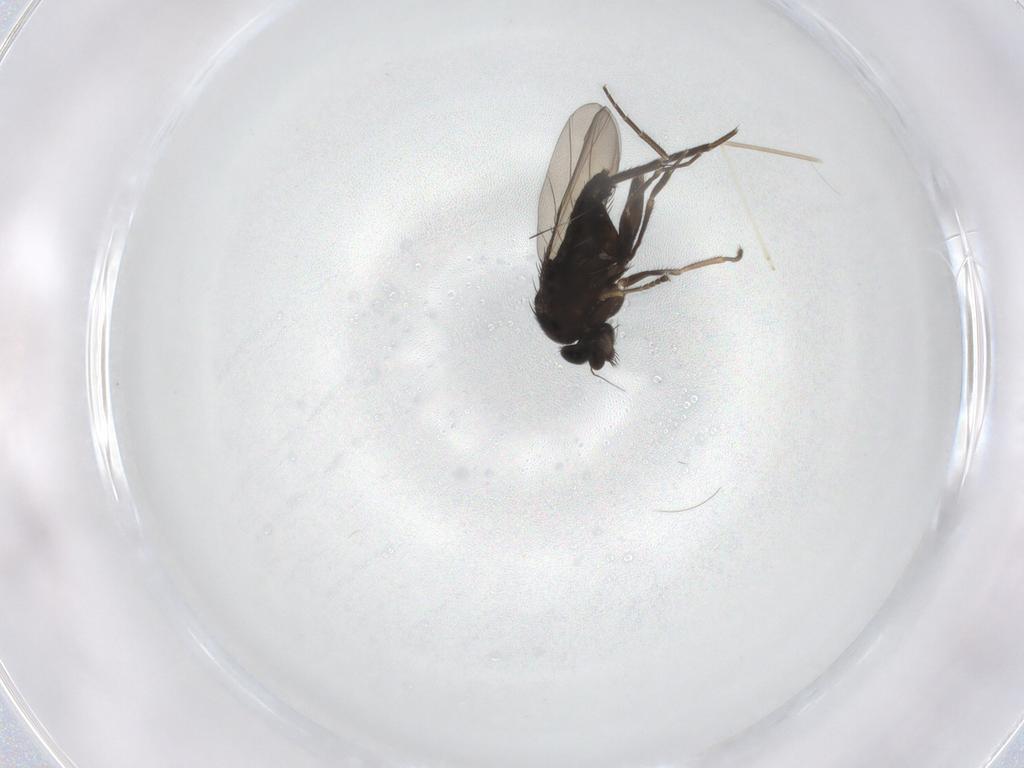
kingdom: Animalia
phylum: Arthropoda
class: Insecta
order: Diptera
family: Phoridae
